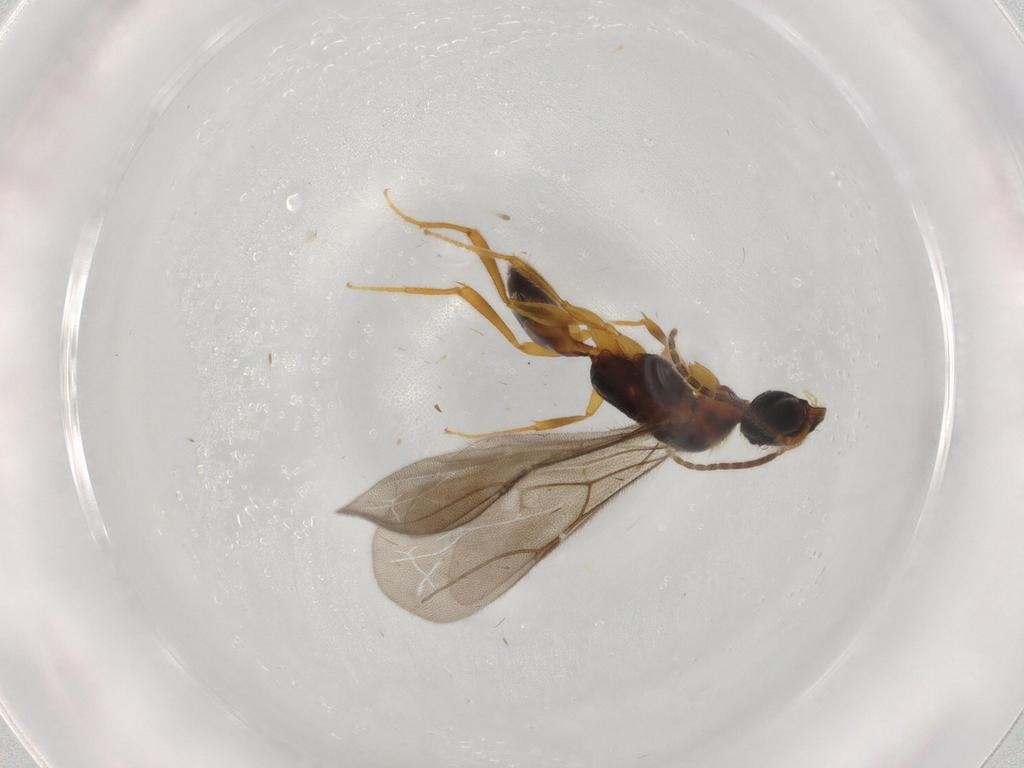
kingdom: Animalia
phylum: Arthropoda
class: Insecta
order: Hymenoptera
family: Bethylidae
